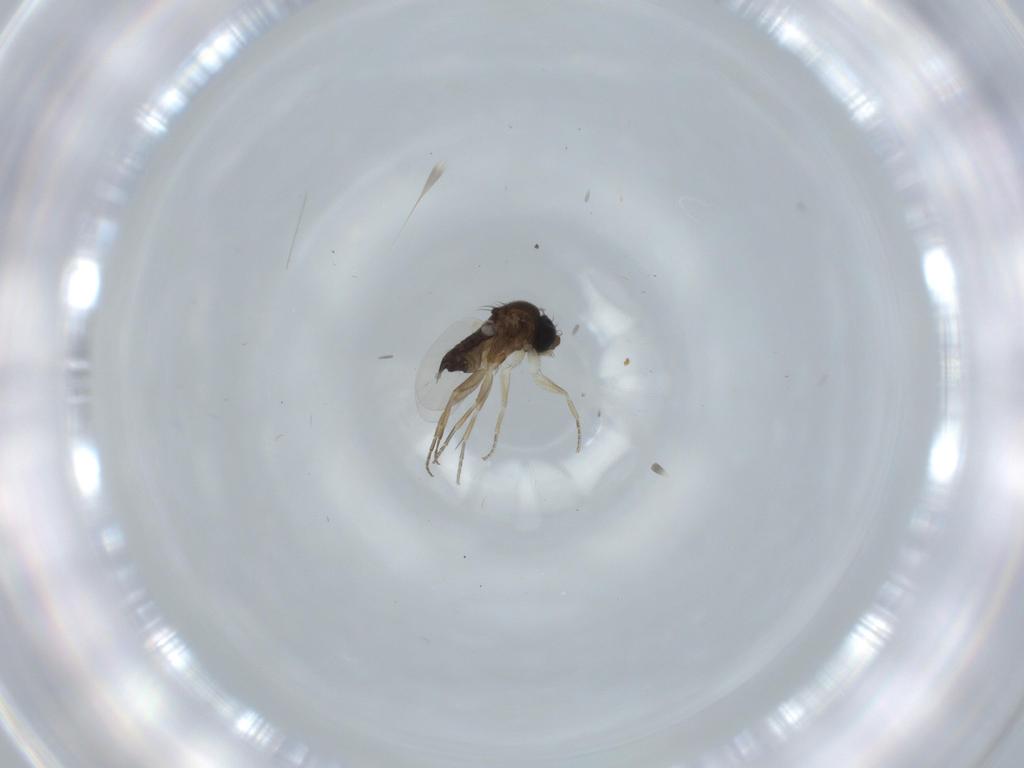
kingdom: Animalia
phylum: Arthropoda
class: Insecta
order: Diptera
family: Phoridae
